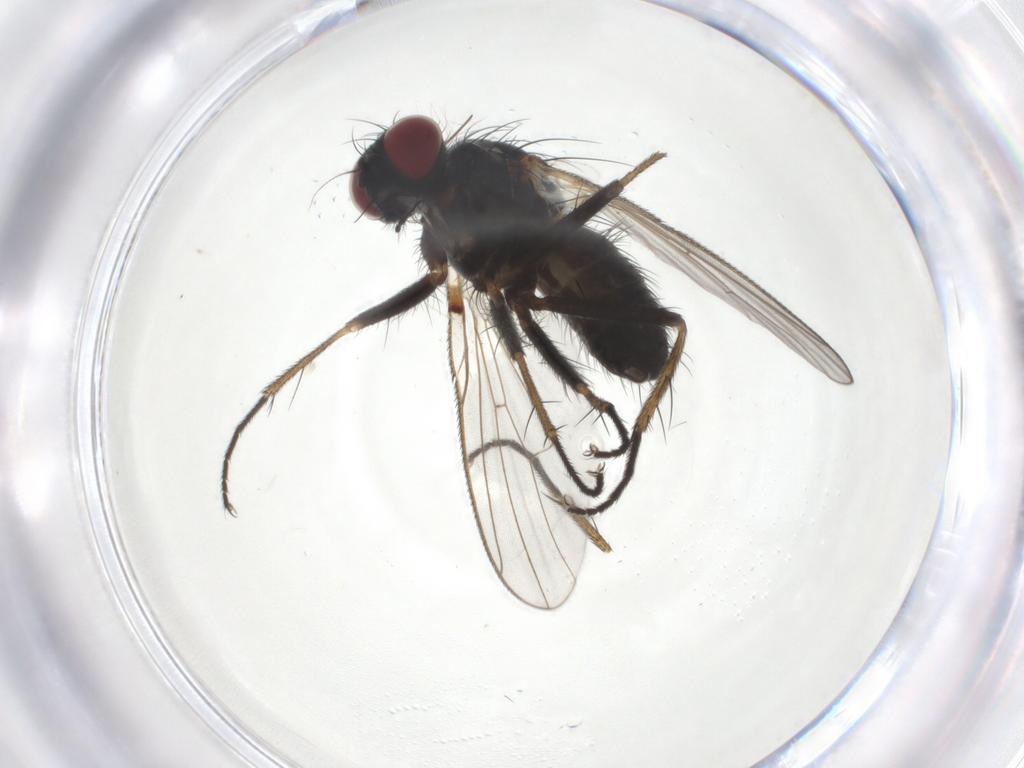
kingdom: Animalia
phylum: Arthropoda
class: Insecta
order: Diptera
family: Muscidae
